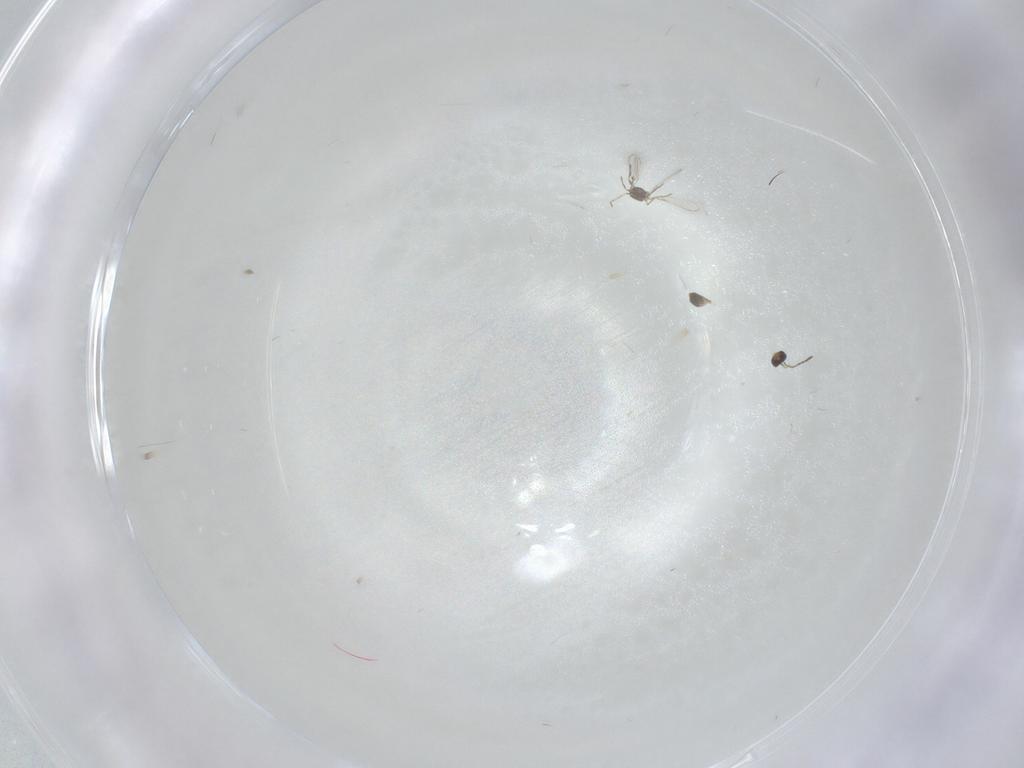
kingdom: Animalia
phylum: Arthropoda
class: Insecta
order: Hymenoptera
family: Mymaridae
